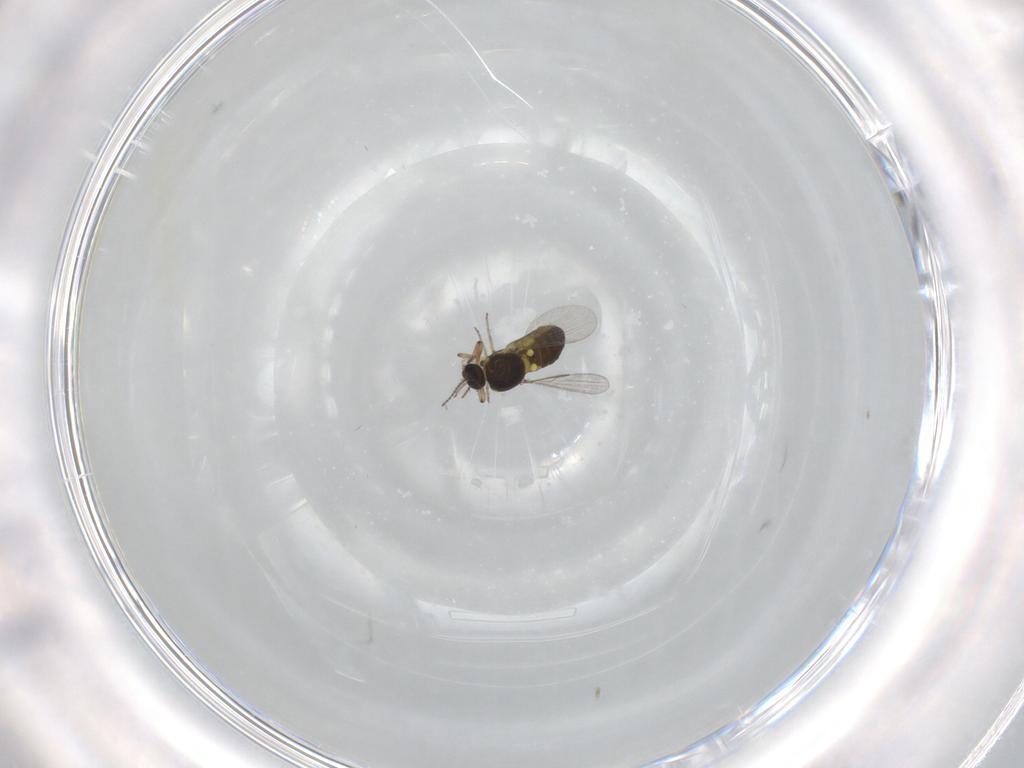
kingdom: Animalia
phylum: Arthropoda
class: Insecta
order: Diptera
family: Ceratopogonidae
